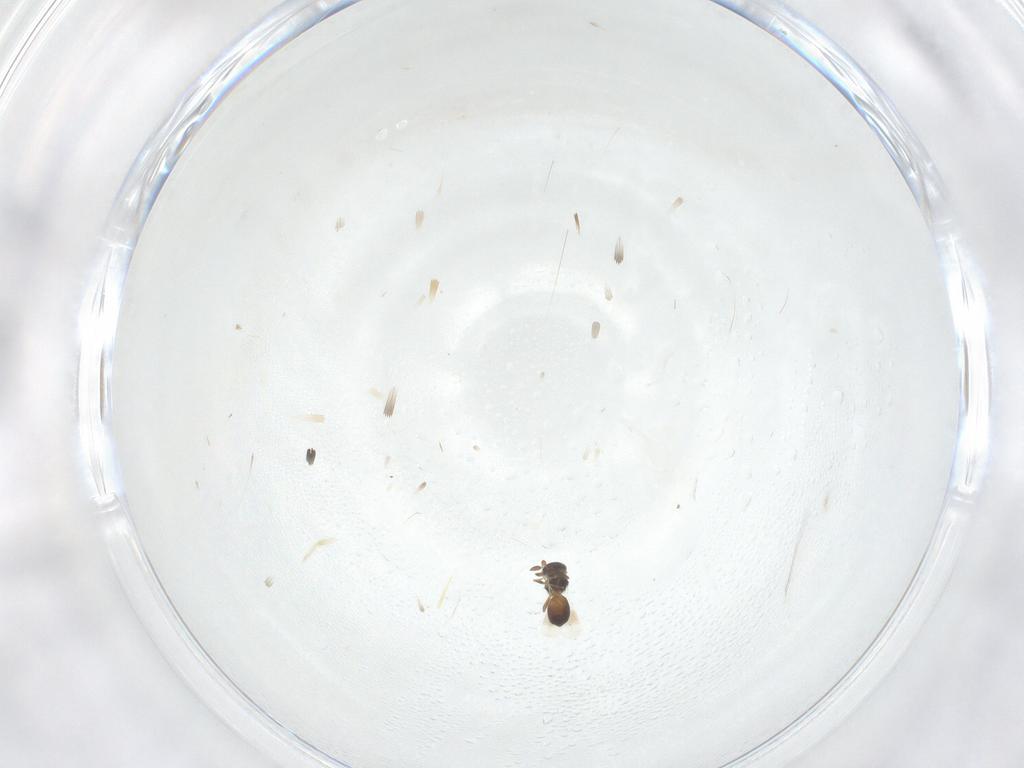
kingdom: Animalia
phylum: Arthropoda
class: Insecta
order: Hymenoptera
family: Platygastridae
